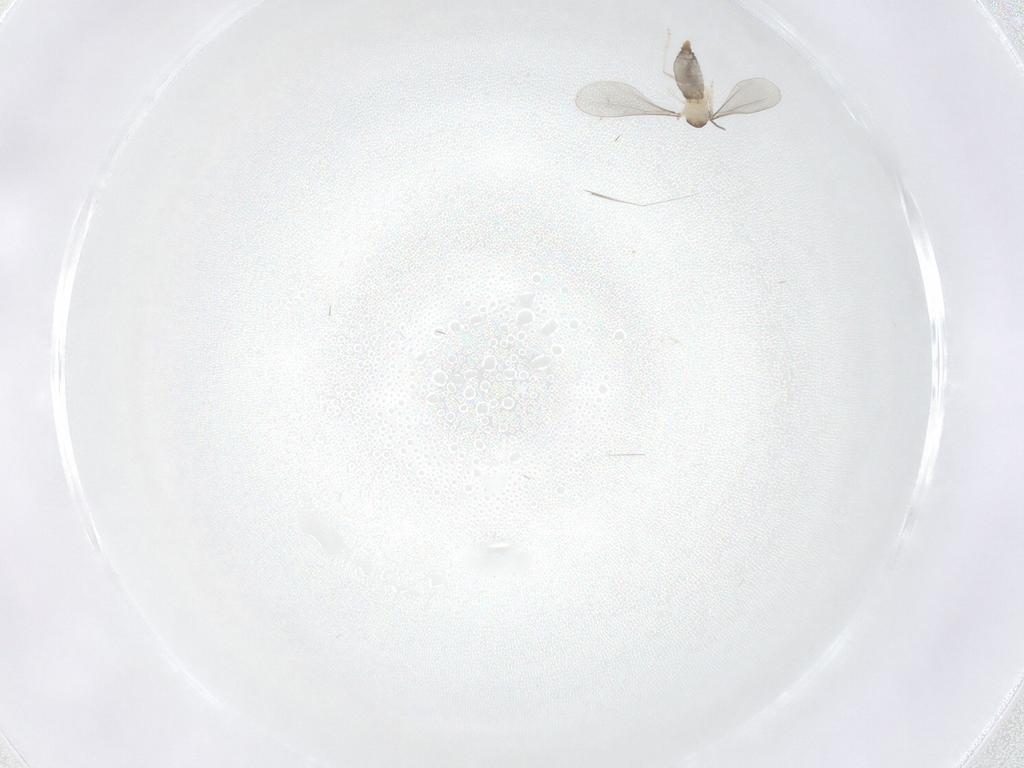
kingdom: Animalia
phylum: Arthropoda
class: Insecta
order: Diptera
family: Cecidomyiidae
